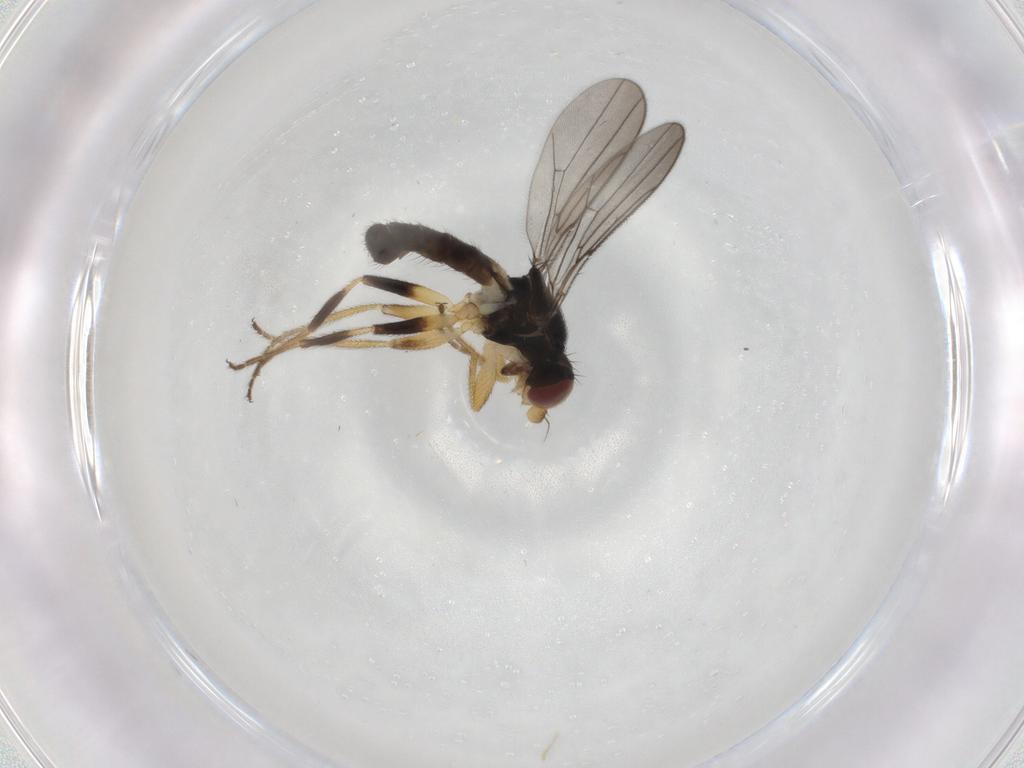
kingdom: Animalia
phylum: Arthropoda
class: Insecta
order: Diptera
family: Chloropidae
